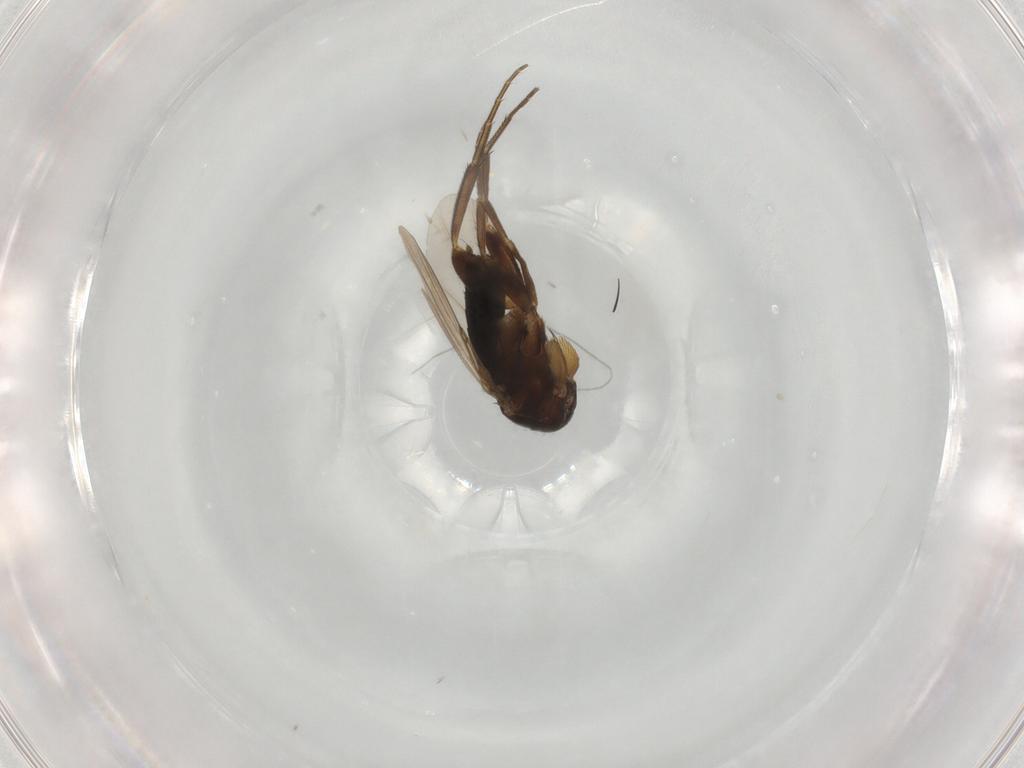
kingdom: Animalia
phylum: Arthropoda
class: Insecta
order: Diptera
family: Phoridae
